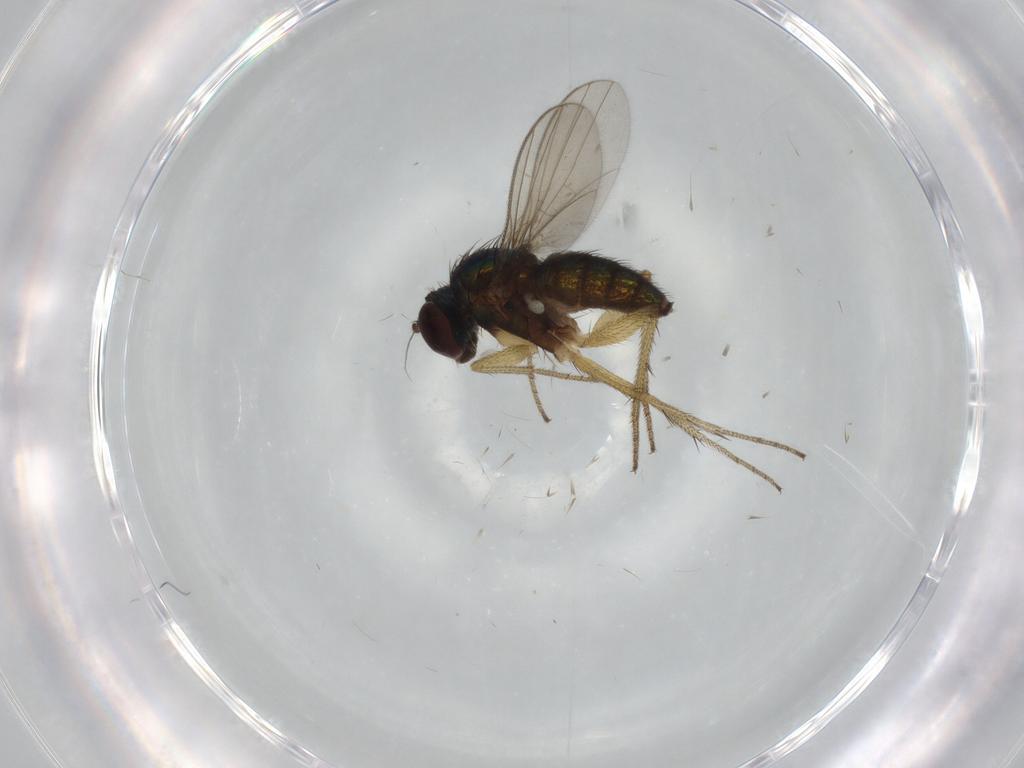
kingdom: Animalia
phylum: Arthropoda
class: Insecta
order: Diptera
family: Dolichopodidae
